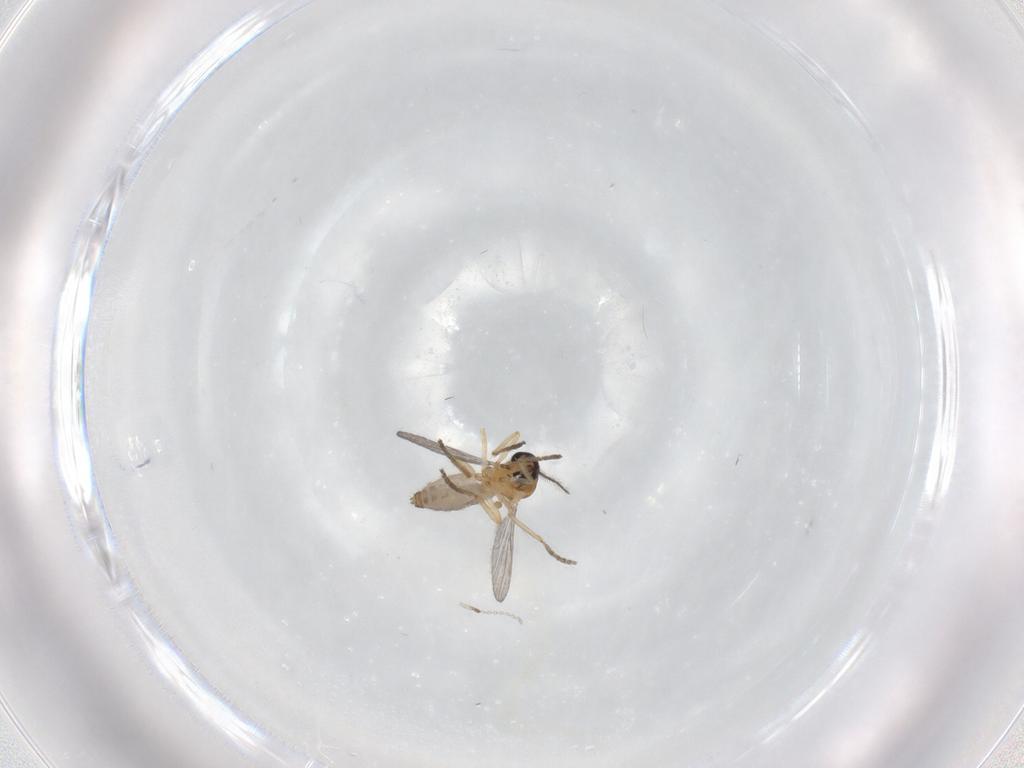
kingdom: Animalia
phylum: Arthropoda
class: Insecta
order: Diptera
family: Ceratopogonidae
